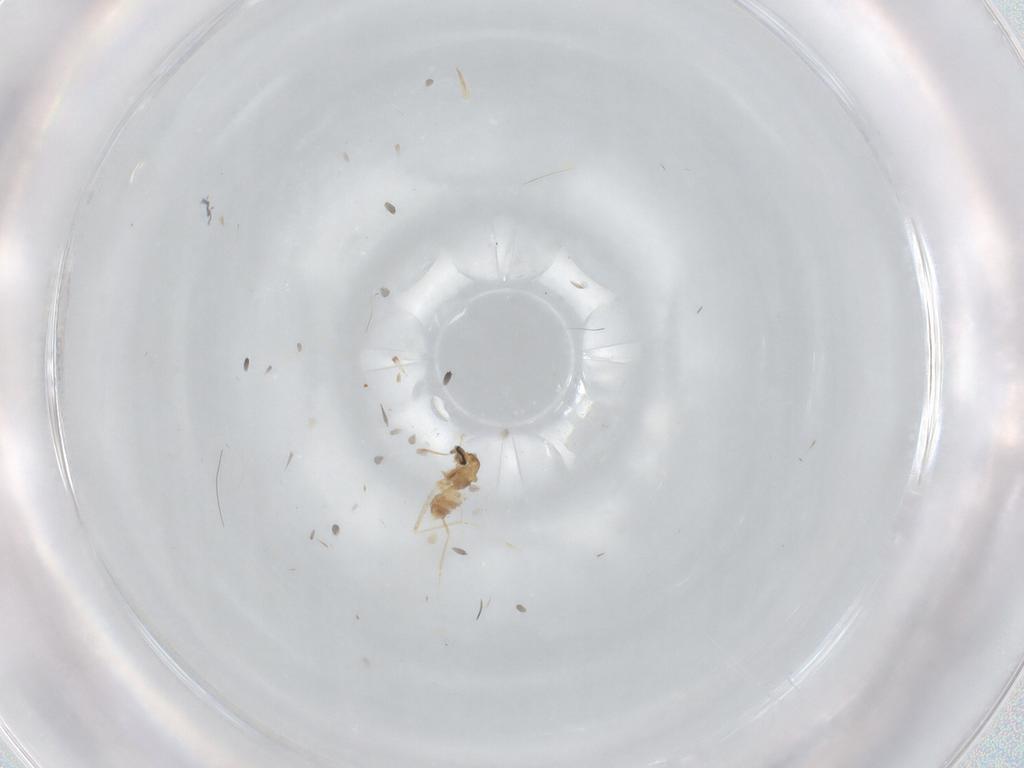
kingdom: Animalia
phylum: Arthropoda
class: Insecta
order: Diptera
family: Cecidomyiidae
